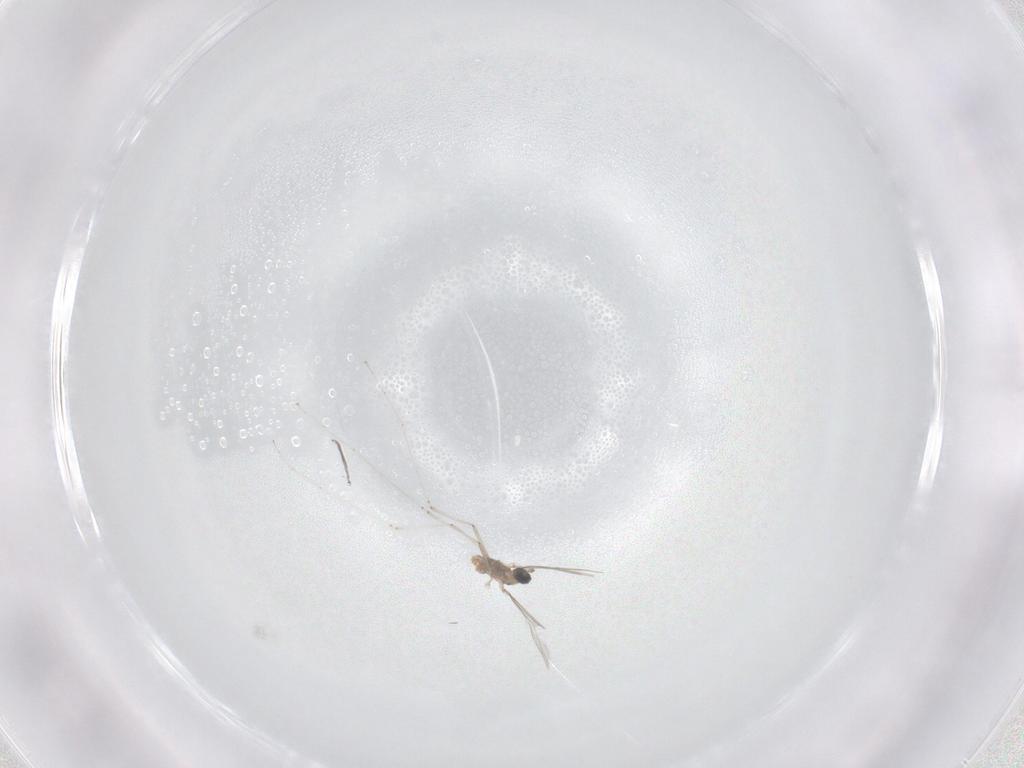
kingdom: Animalia
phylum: Arthropoda
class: Insecta
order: Diptera
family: Cecidomyiidae
